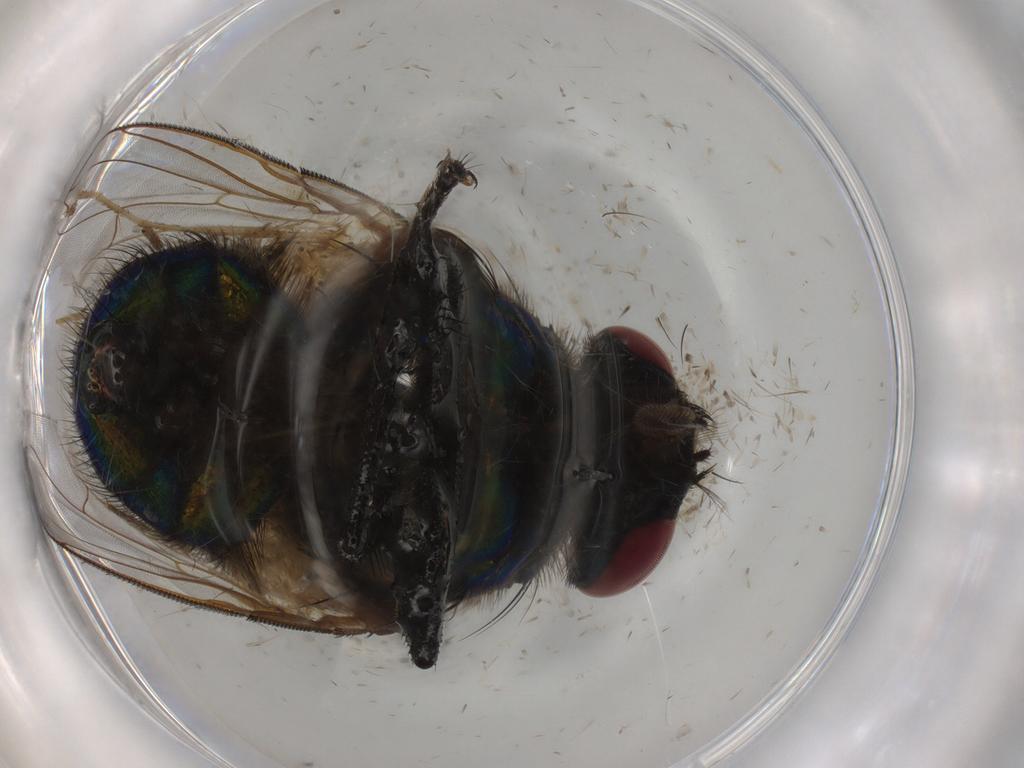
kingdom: Animalia
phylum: Arthropoda
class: Insecta
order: Diptera
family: Muscidae
